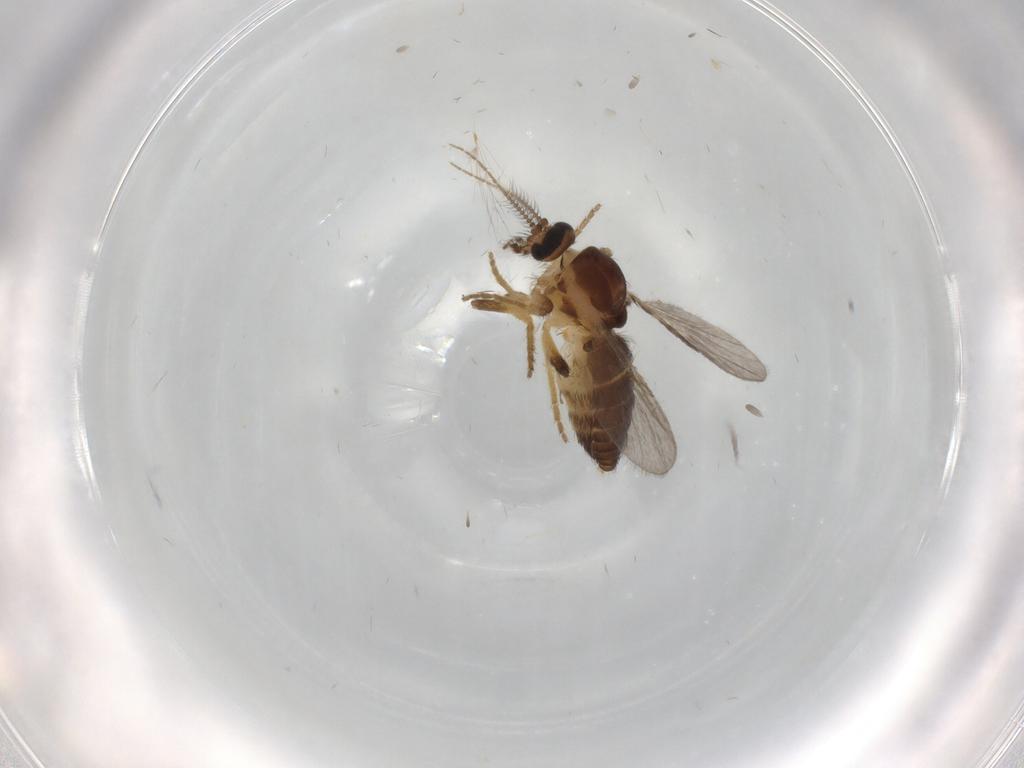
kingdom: Animalia
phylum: Arthropoda
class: Insecta
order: Diptera
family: Ceratopogonidae
